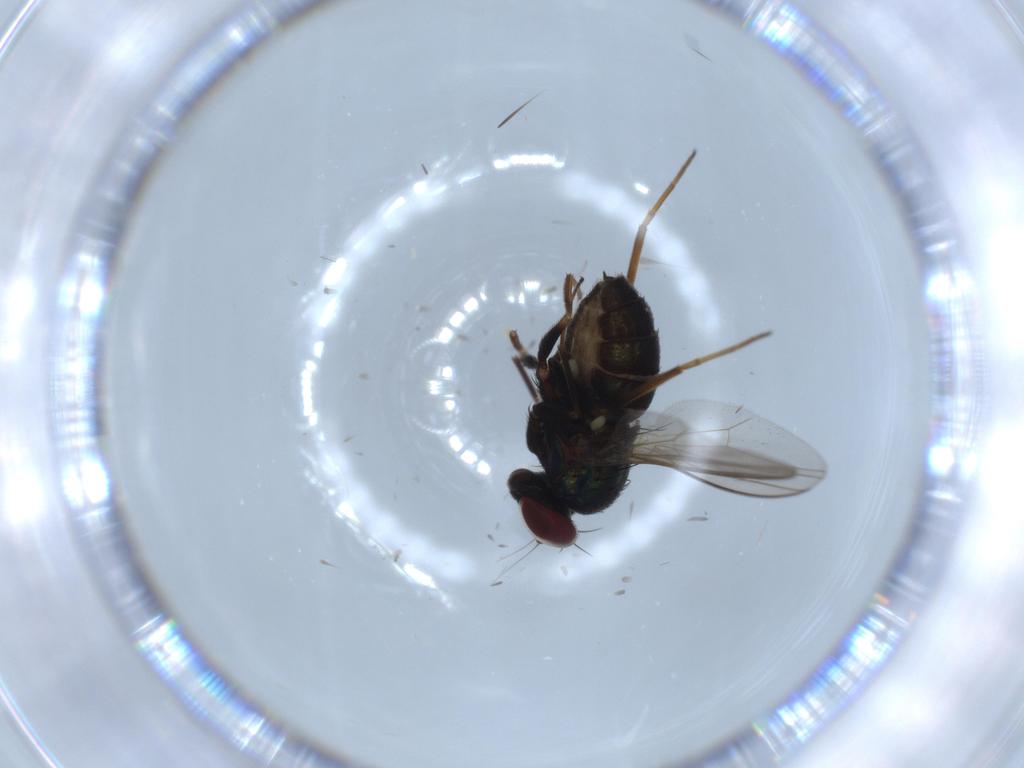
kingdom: Animalia
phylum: Arthropoda
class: Insecta
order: Diptera
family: Dolichopodidae
